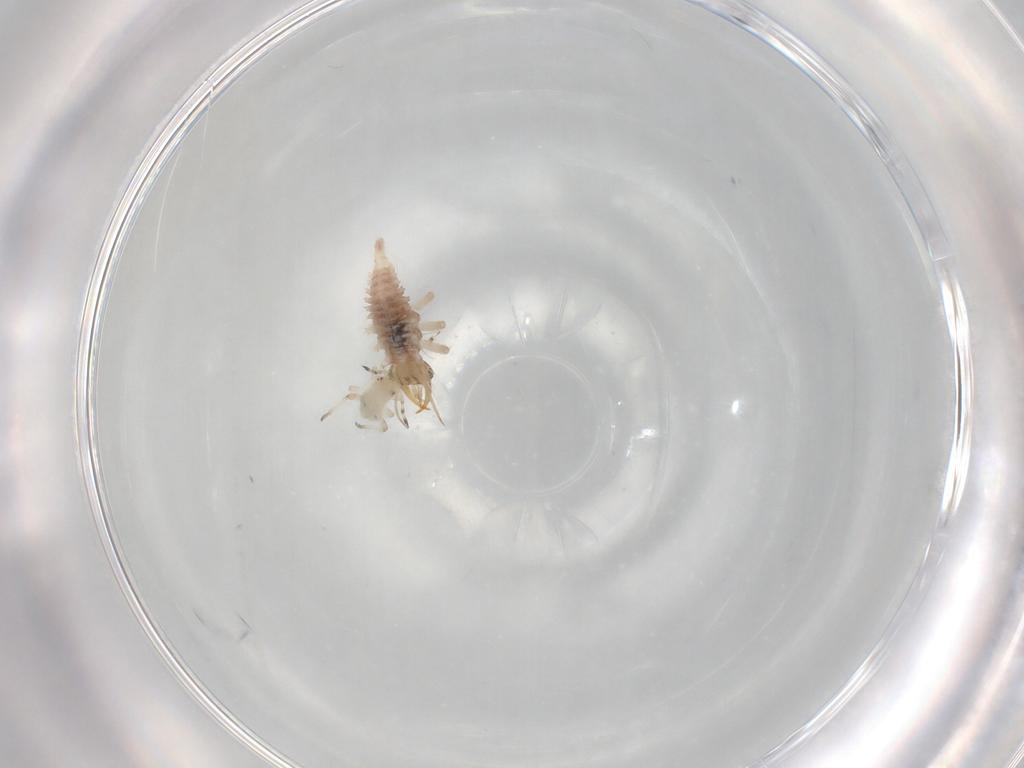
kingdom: Animalia
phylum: Arthropoda
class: Insecta
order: Hemiptera
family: Aphididae
